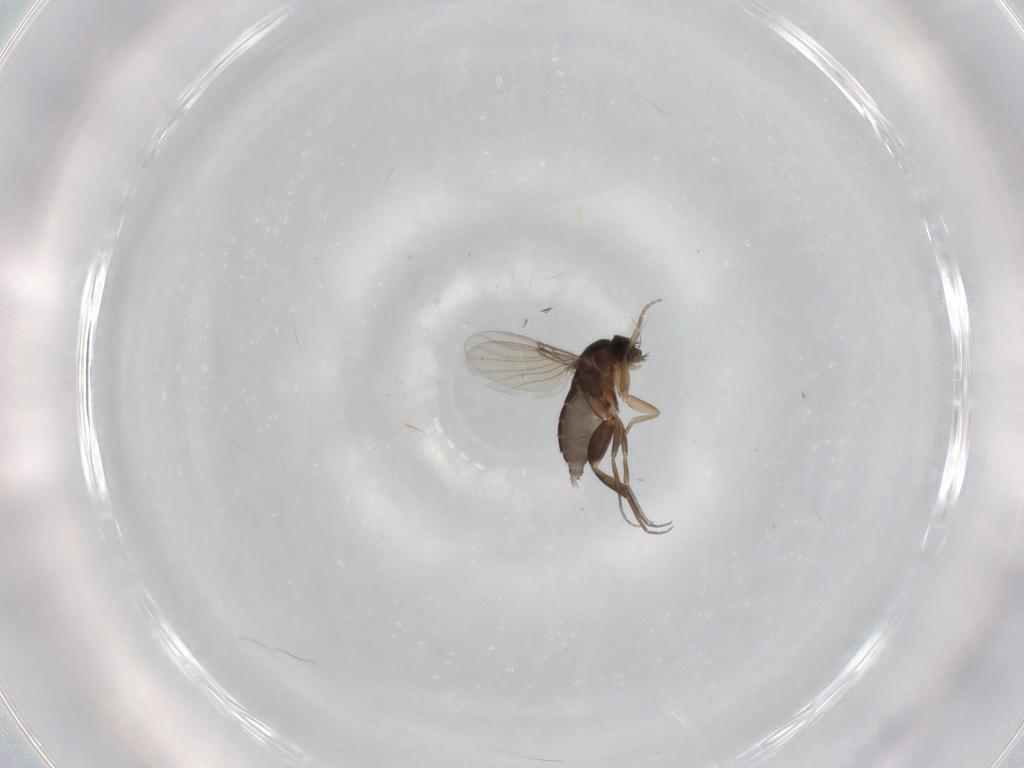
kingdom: Animalia
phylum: Arthropoda
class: Insecta
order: Diptera
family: Phoridae
